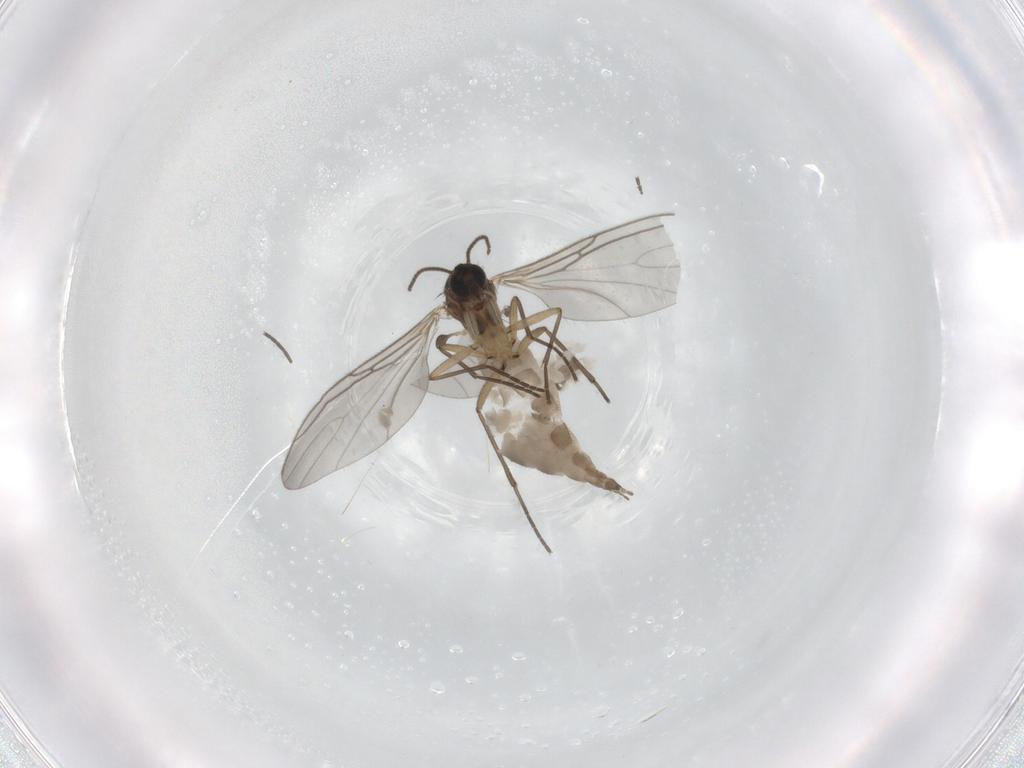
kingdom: Animalia
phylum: Arthropoda
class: Insecta
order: Diptera
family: Sciaridae
